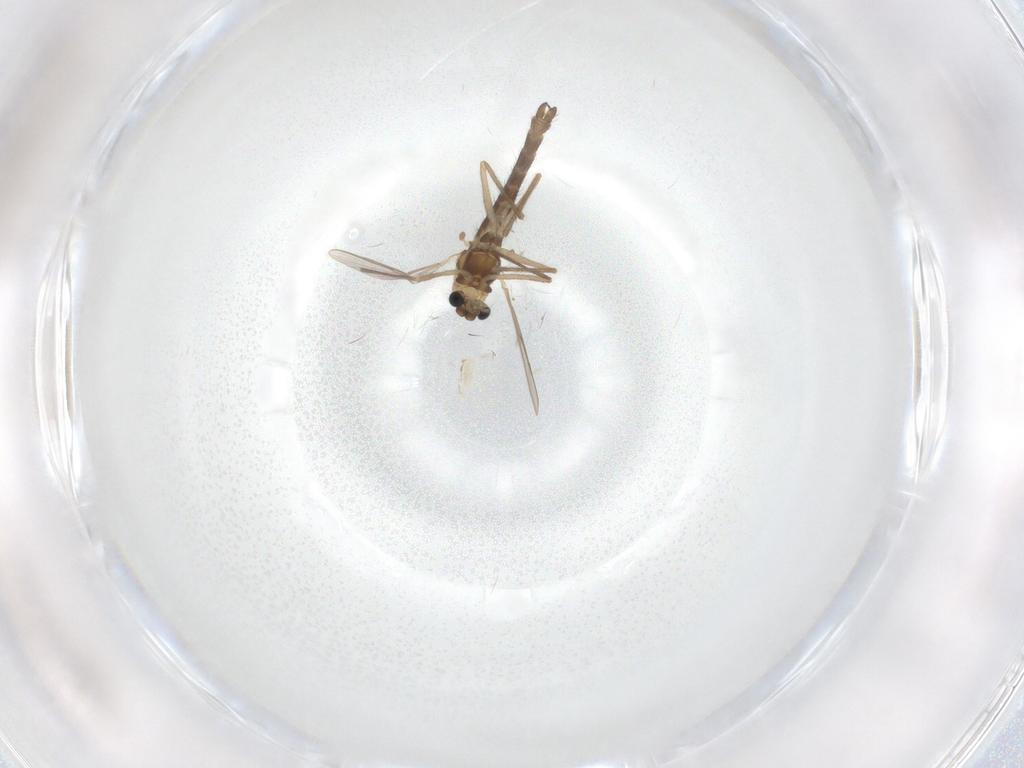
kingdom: Animalia
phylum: Arthropoda
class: Insecta
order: Diptera
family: Chironomidae
